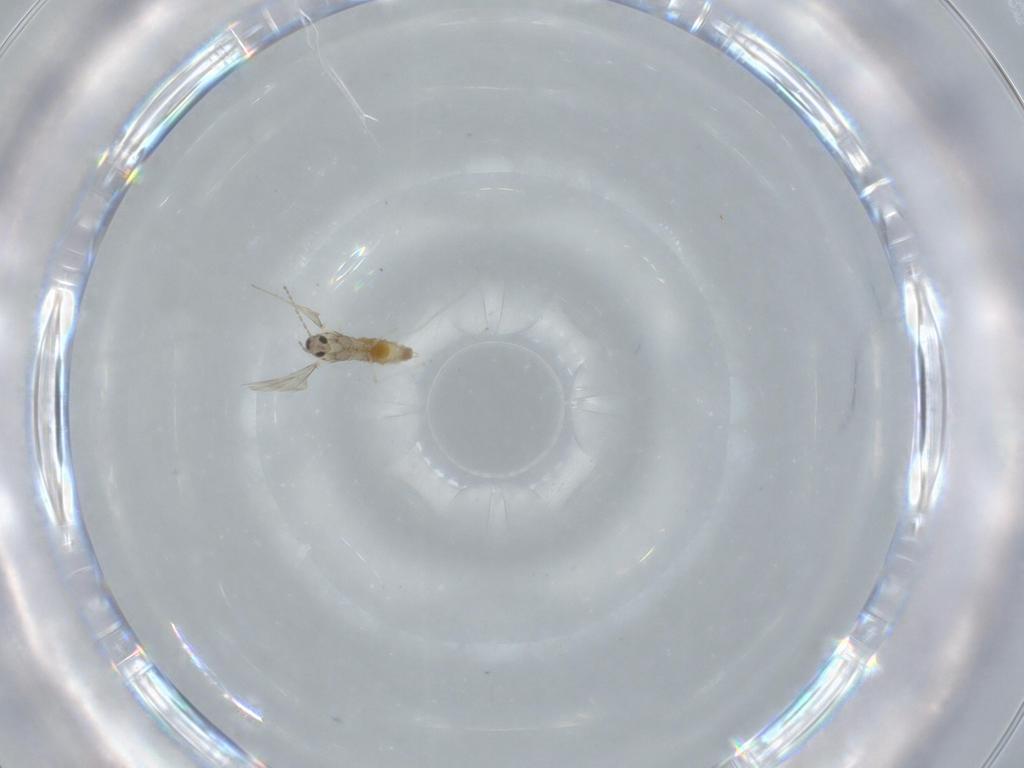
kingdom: Animalia
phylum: Arthropoda
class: Insecta
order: Diptera
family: Cecidomyiidae
